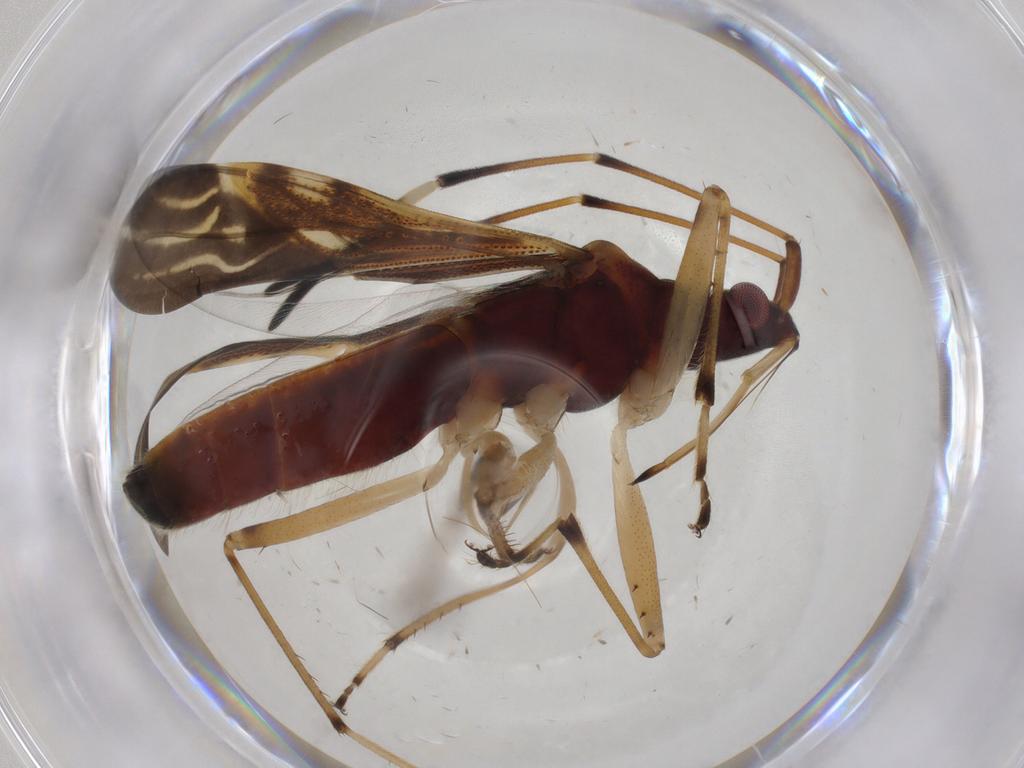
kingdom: Animalia
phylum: Arthropoda
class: Insecta
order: Hemiptera
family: Rhyparochromidae
